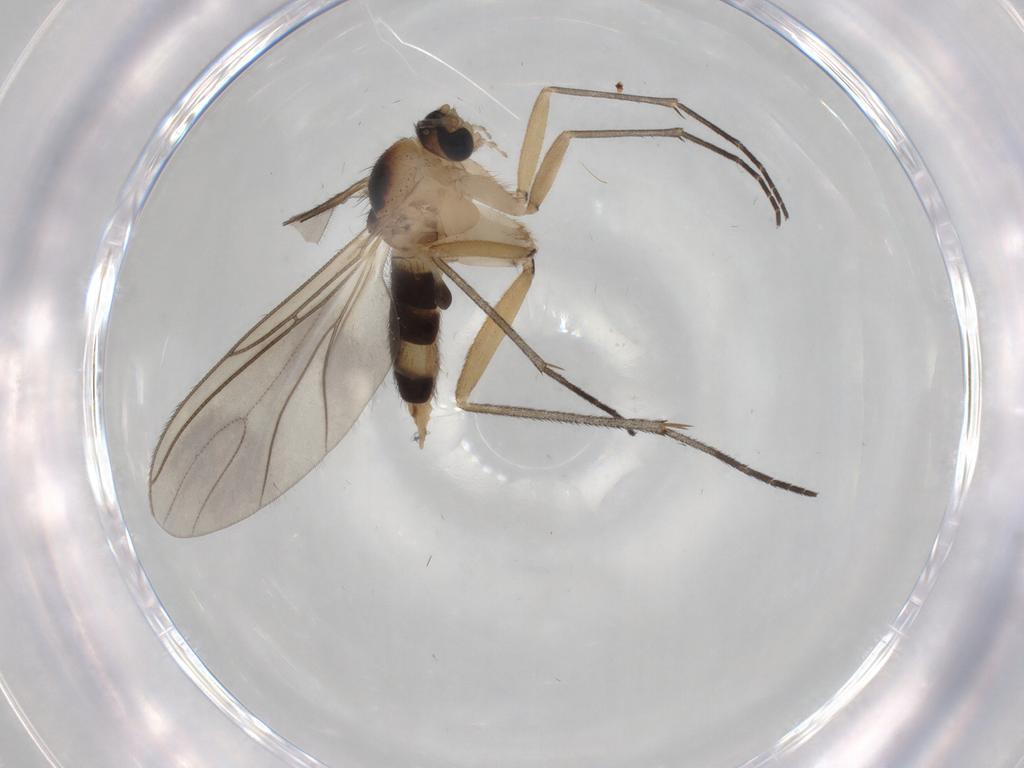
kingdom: Animalia
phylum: Arthropoda
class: Insecta
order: Diptera
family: Sciaridae
